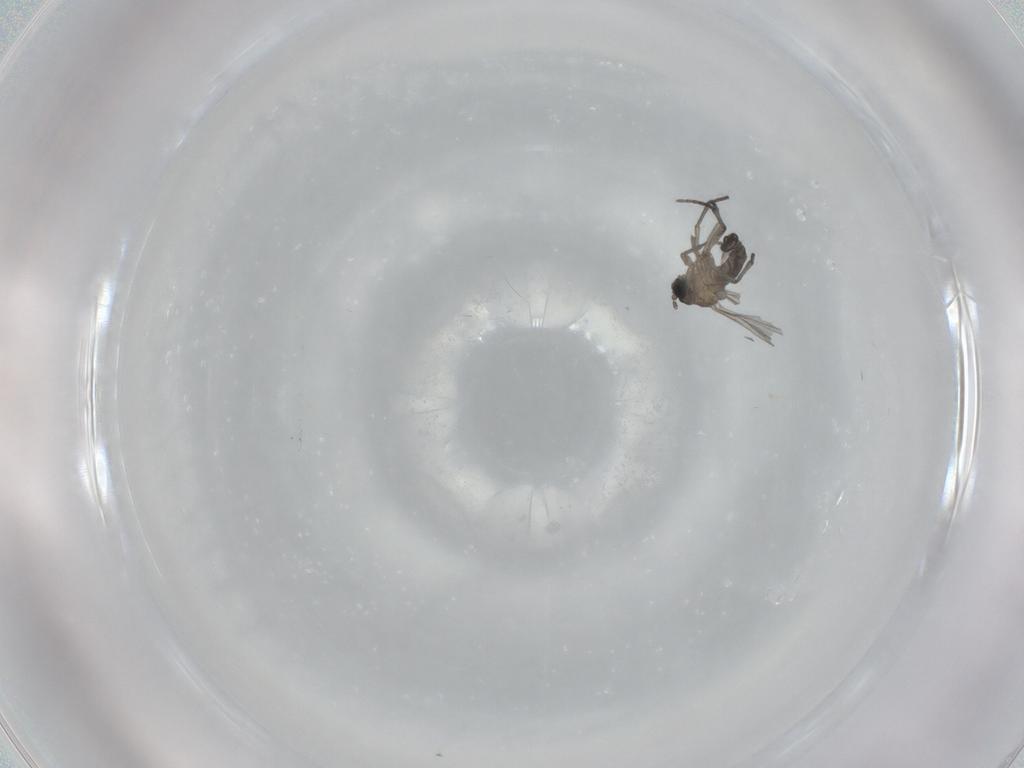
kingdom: Animalia
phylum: Arthropoda
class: Insecta
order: Diptera
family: Sciaridae
